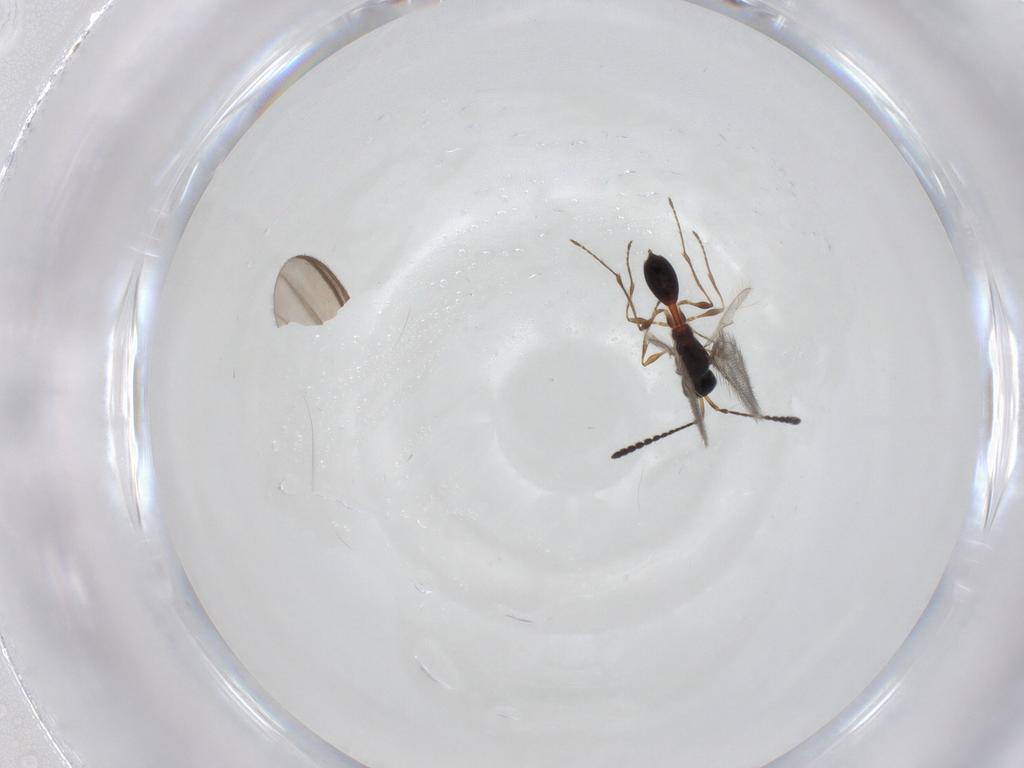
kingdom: Animalia
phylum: Arthropoda
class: Insecta
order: Hymenoptera
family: Diapriidae
